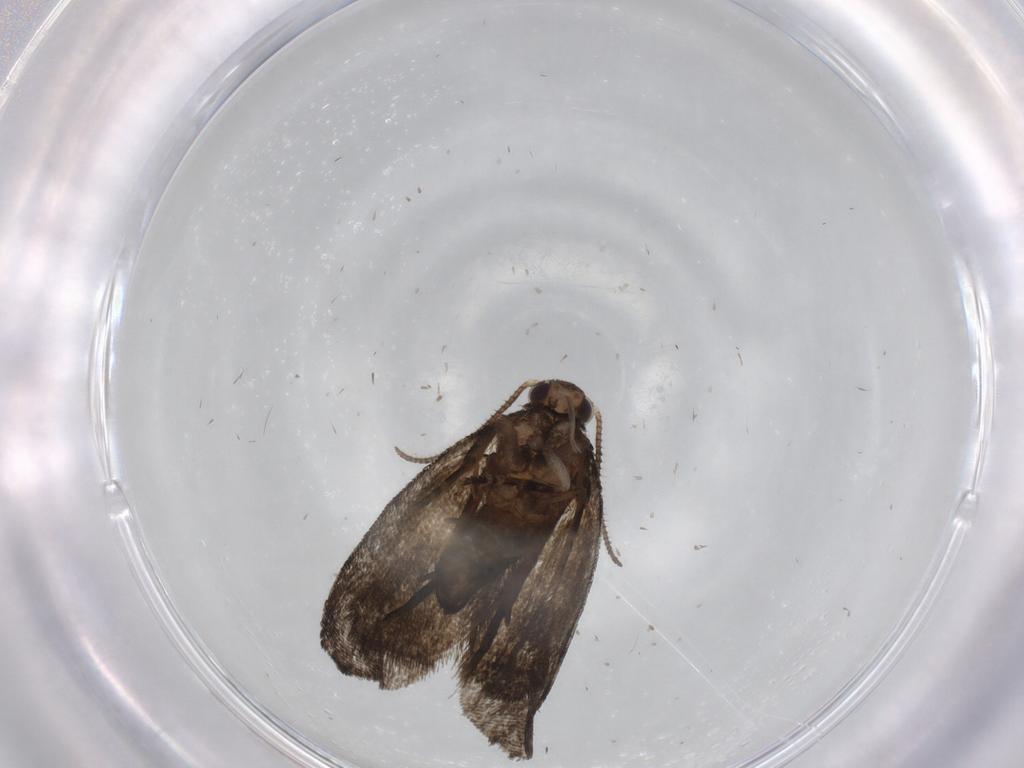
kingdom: Animalia
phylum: Arthropoda
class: Insecta
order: Lepidoptera
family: Tortricidae
